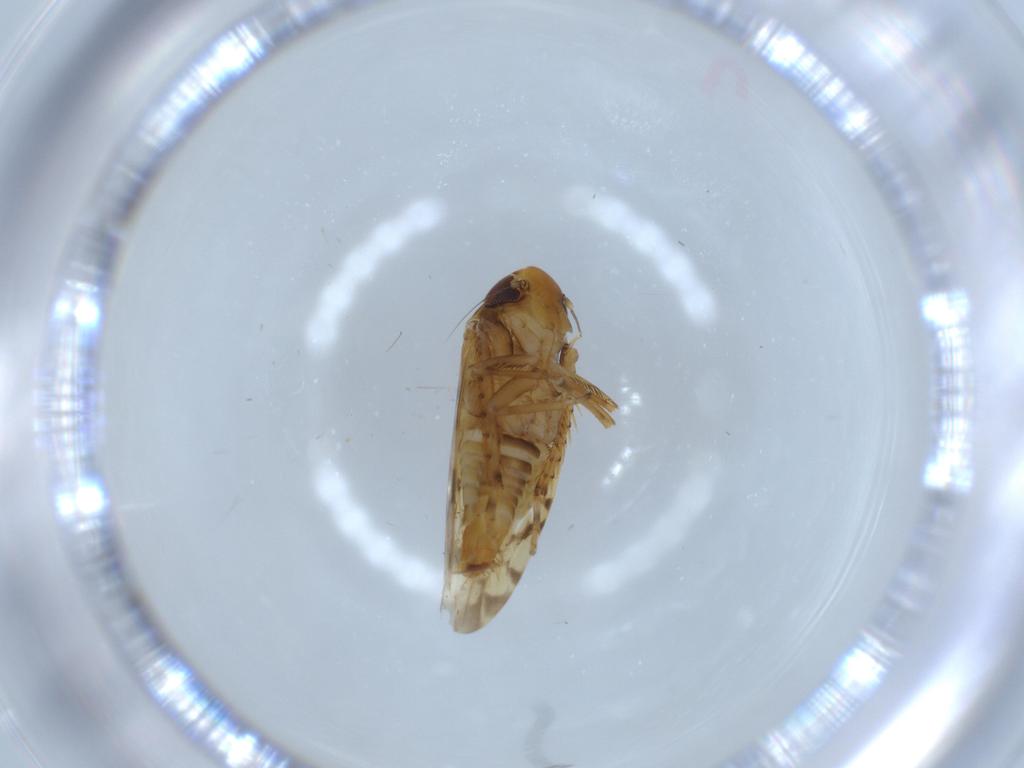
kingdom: Animalia
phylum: Arthropoda
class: Insecta
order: Hemiptera
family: Cicadellidae
